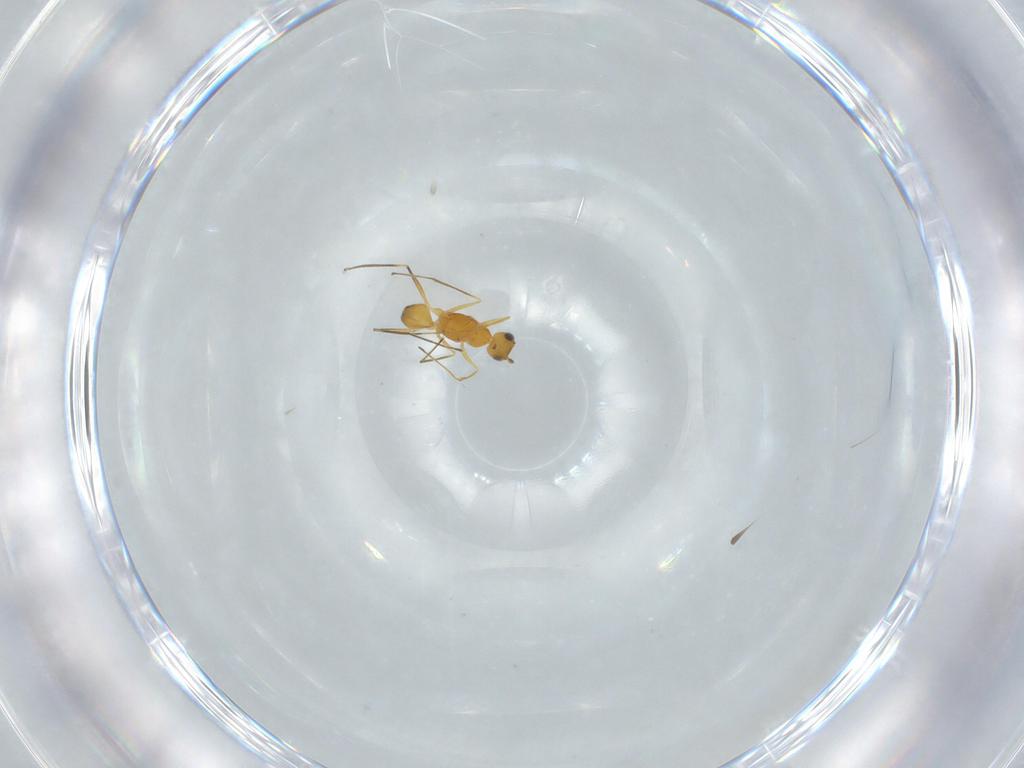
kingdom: Animalia
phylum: Arthropoda
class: Insecta
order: Hymenoptera
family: Mymaridae
